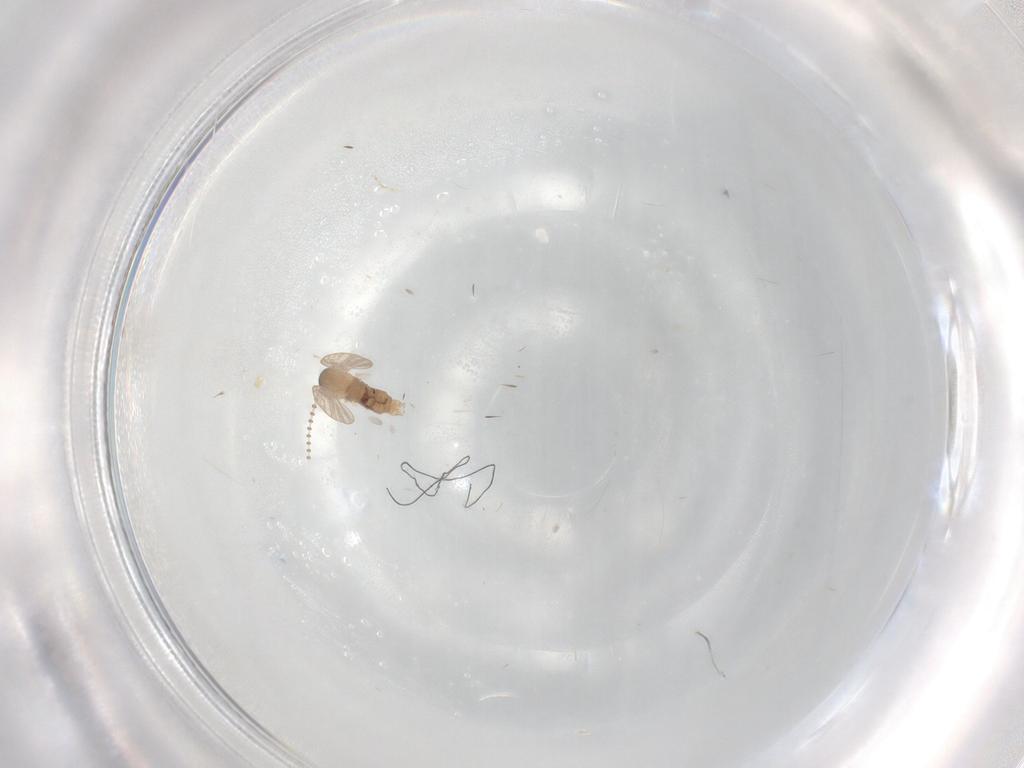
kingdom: Animalia
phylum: Arthropoda
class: Insecta
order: Diptera
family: Psychodidae
